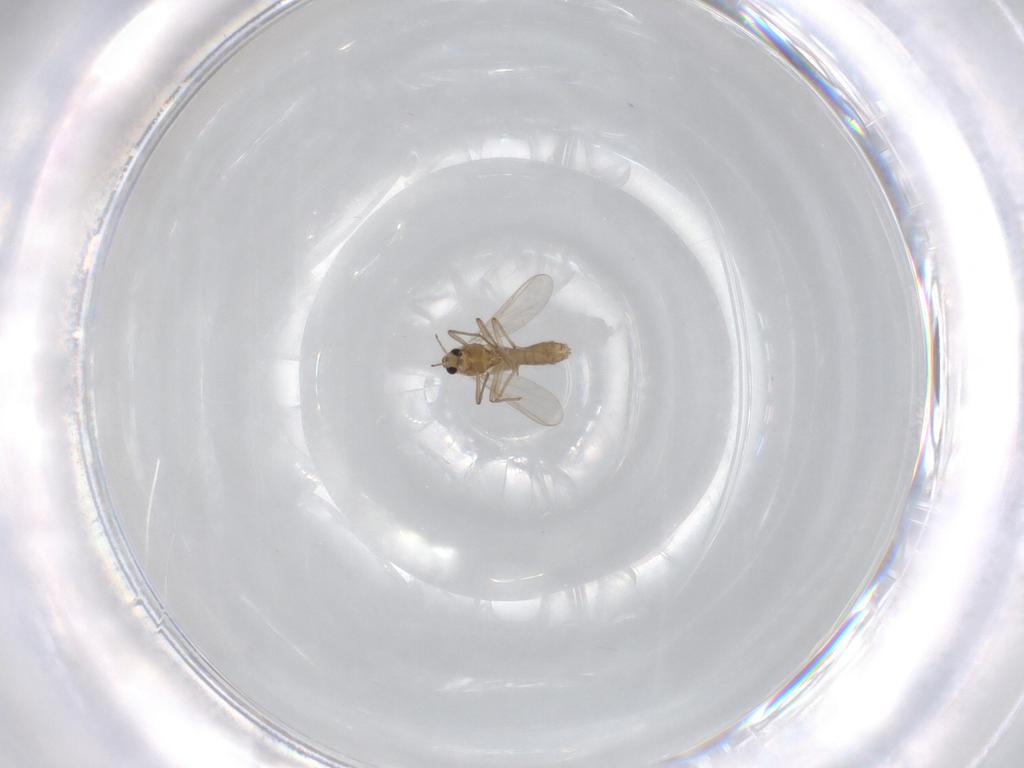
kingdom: Animalia
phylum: Arthropoda
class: Insecta
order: Diptera
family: Chironomidae
